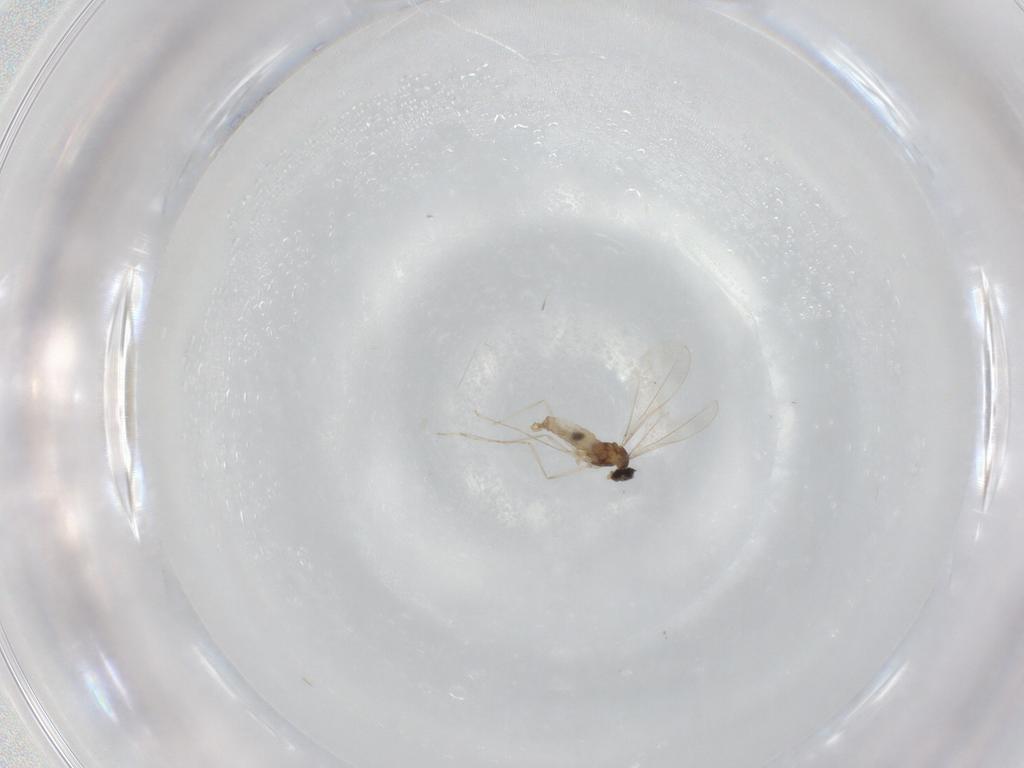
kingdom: Animalia
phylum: Arthropoda
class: Insecta
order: Diptera
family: Phoridae
